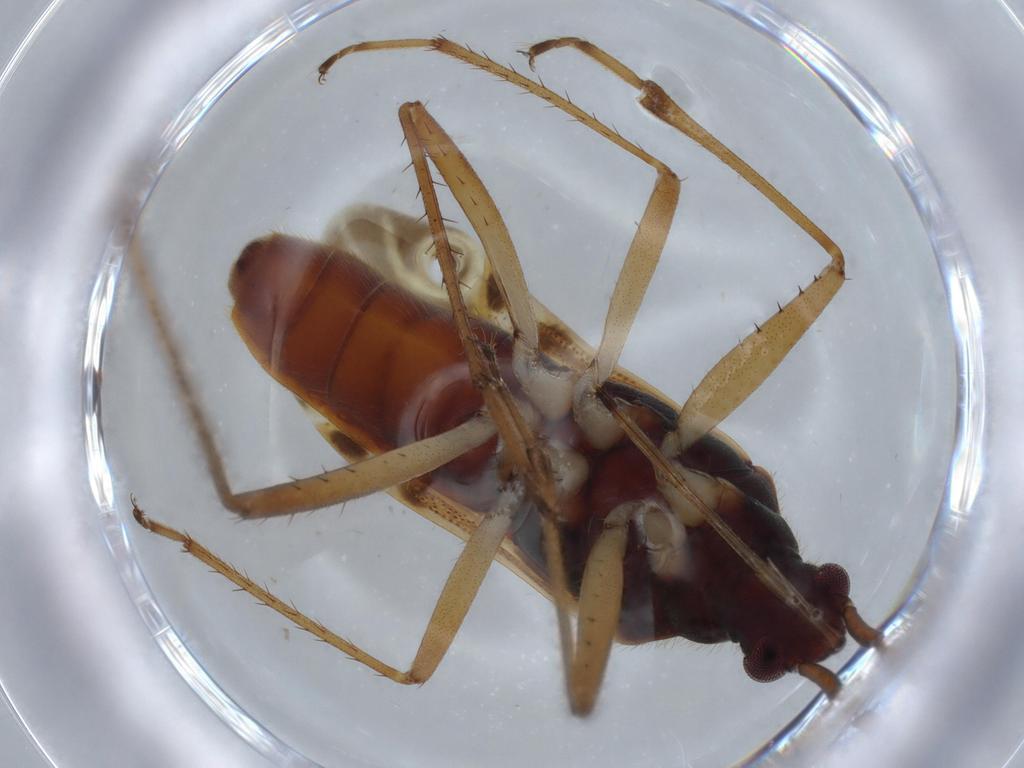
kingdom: Animalia
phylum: Arthropoda
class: Insecta
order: Hemiptera
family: Rhyparochromidae
